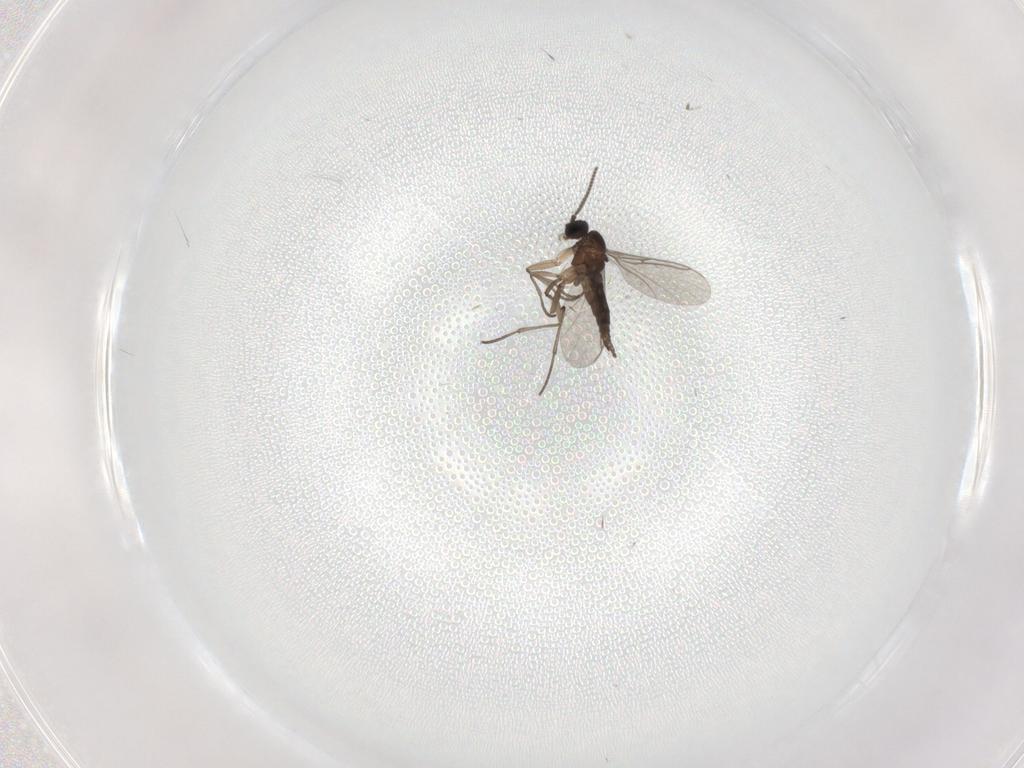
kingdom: Animalia
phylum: Arthropoda
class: Insecta
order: Diptera
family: Sciaridae
